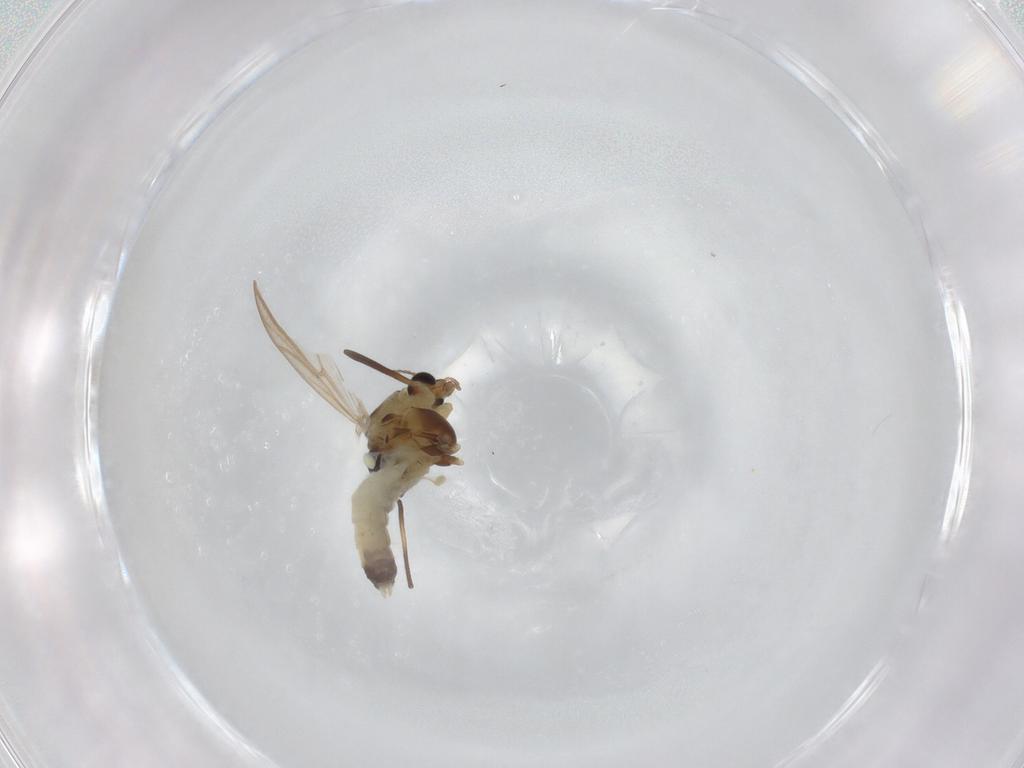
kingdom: Animalia
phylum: Arthropoda
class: Insecta
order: Diptera
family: Chironomidae
